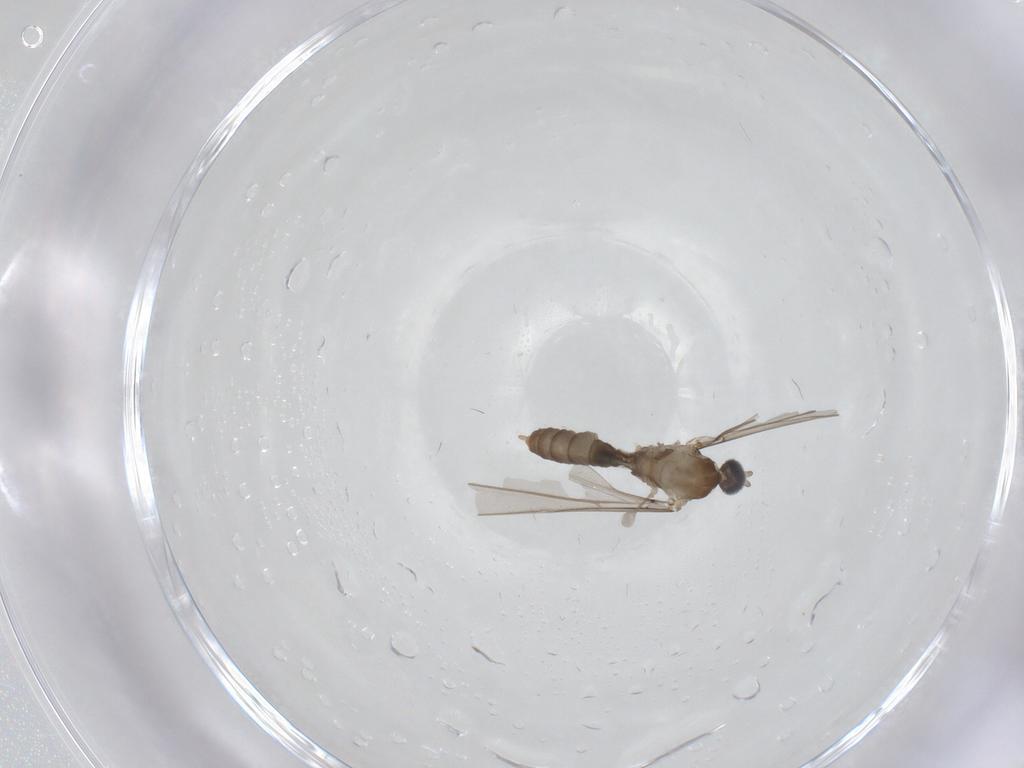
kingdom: Animalia
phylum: Arthropoda
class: Insecta
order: Diptera
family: Cecidomyiidae
